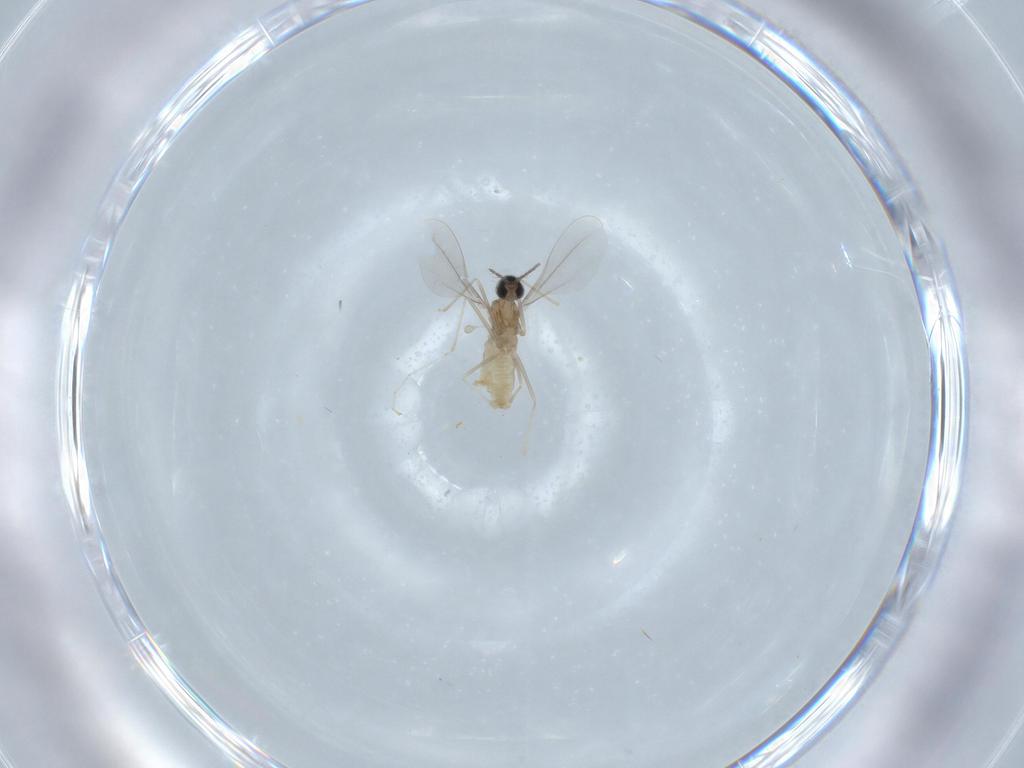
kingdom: Animalia
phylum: Arthropoda
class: Insecta
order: Diptera
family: Sciaridae
